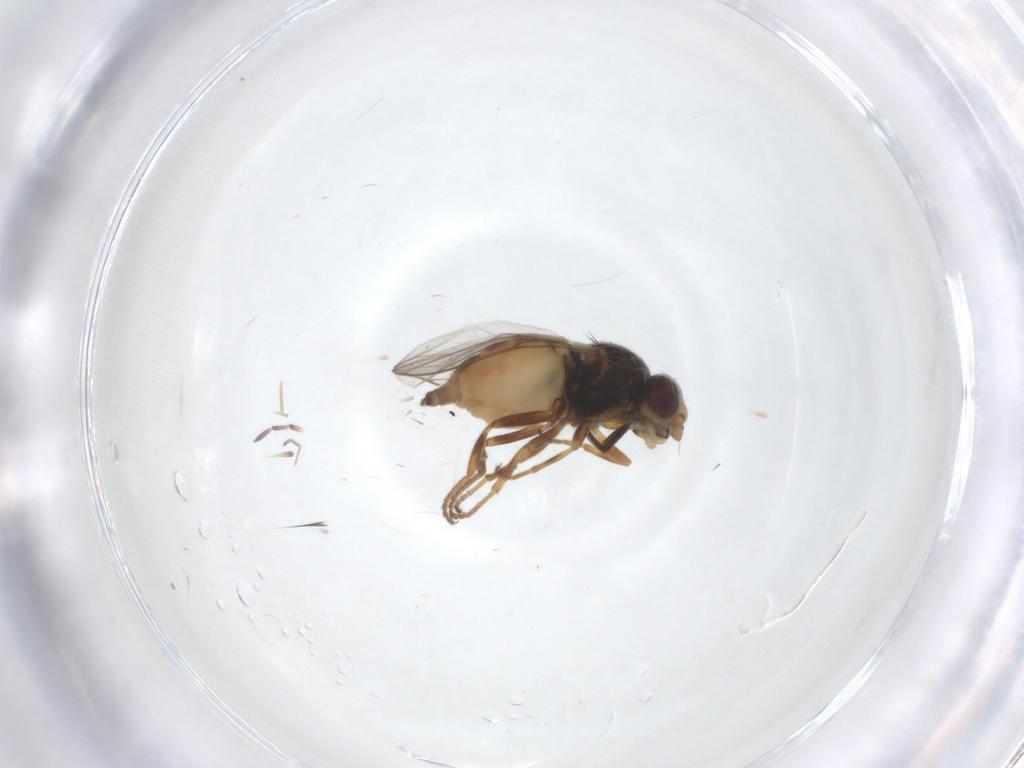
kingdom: Animalia
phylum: Arthropoda
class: Insecta
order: Diptera
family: Chloropidae
